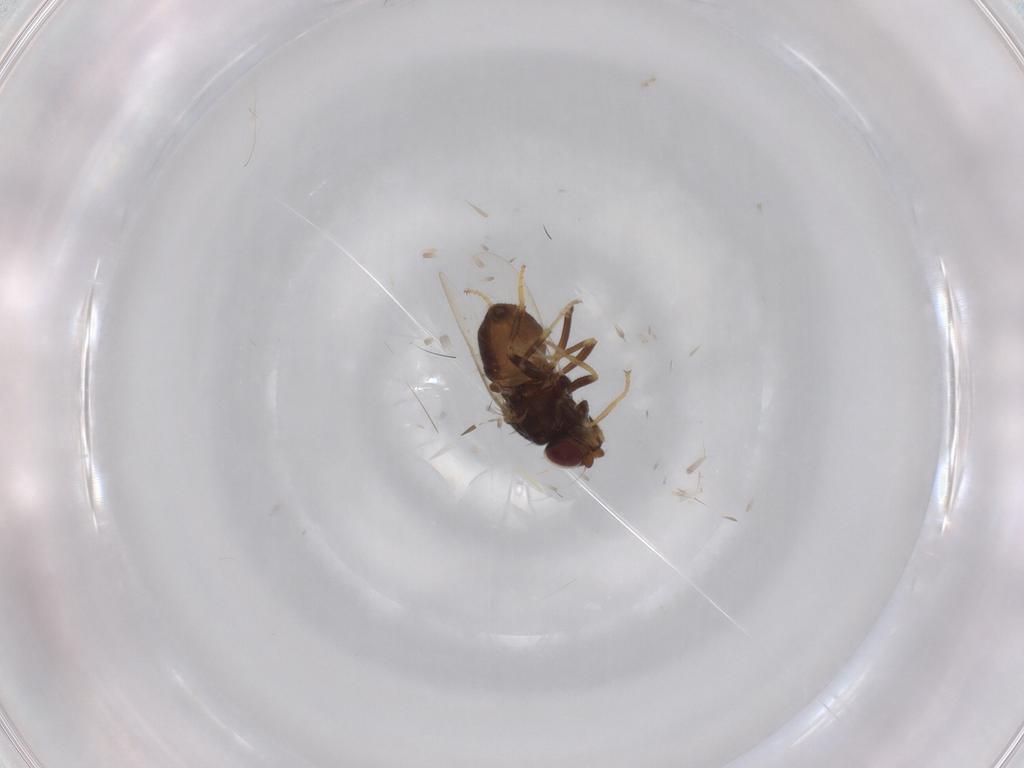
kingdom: Animalia
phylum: Arthropoda
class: Insecta
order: Diptera
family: Chloropidae
